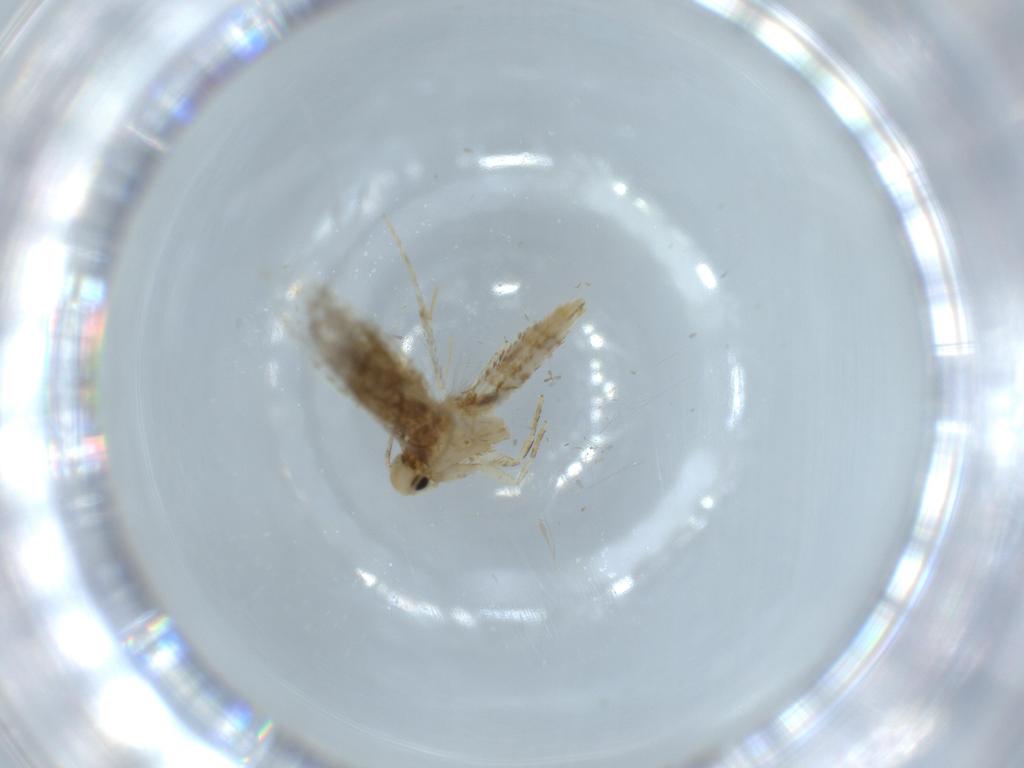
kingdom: Animalia
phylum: Arthropoda
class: Insecta
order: Lepidoptera
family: Tineidae
